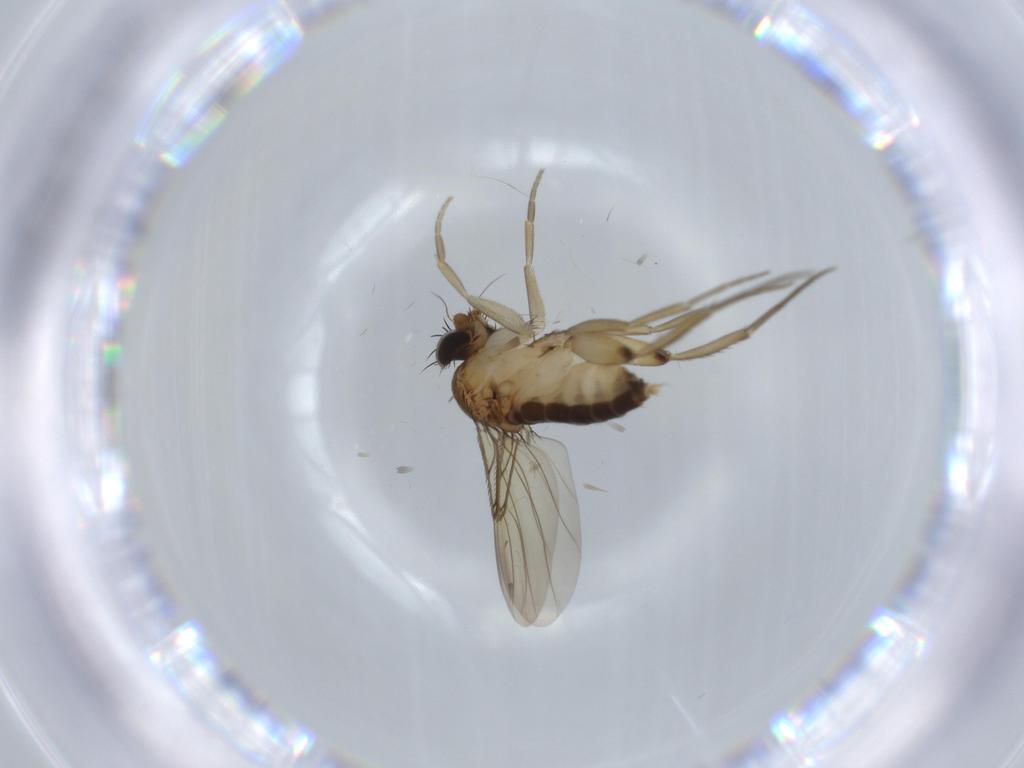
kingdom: Animalia
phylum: Arthropoda
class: Insecta
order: Diptera
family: Phoridae
